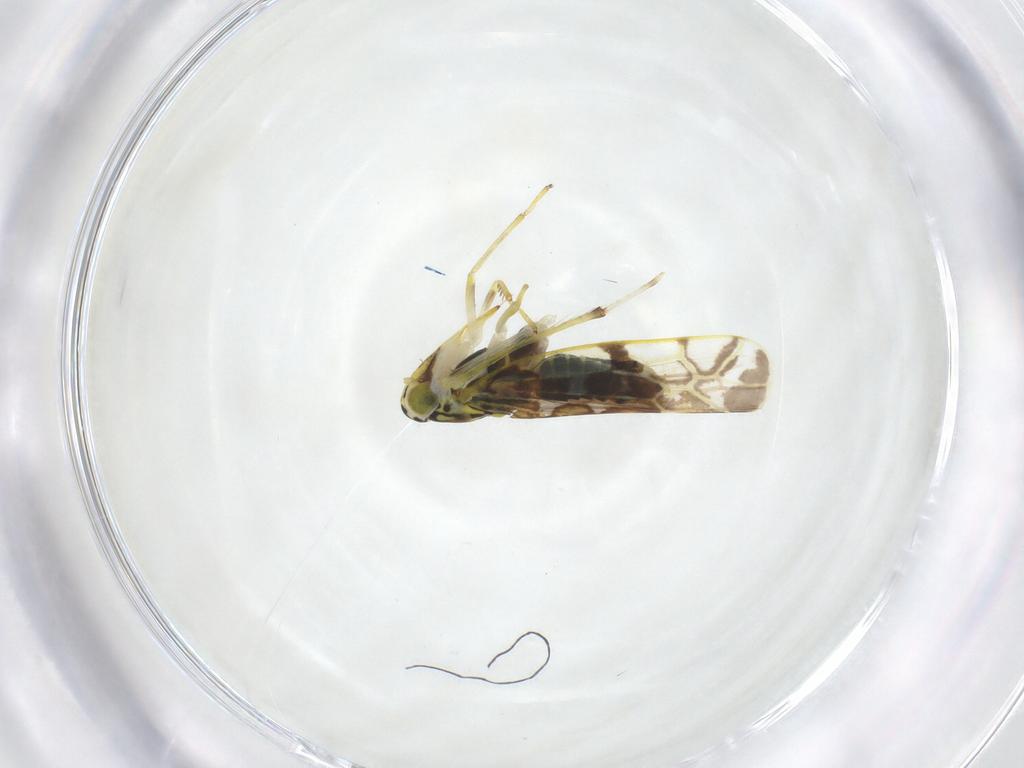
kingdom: Animalia
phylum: Arthropoda
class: Insecta
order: Hemiptera
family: Cicadellidae
